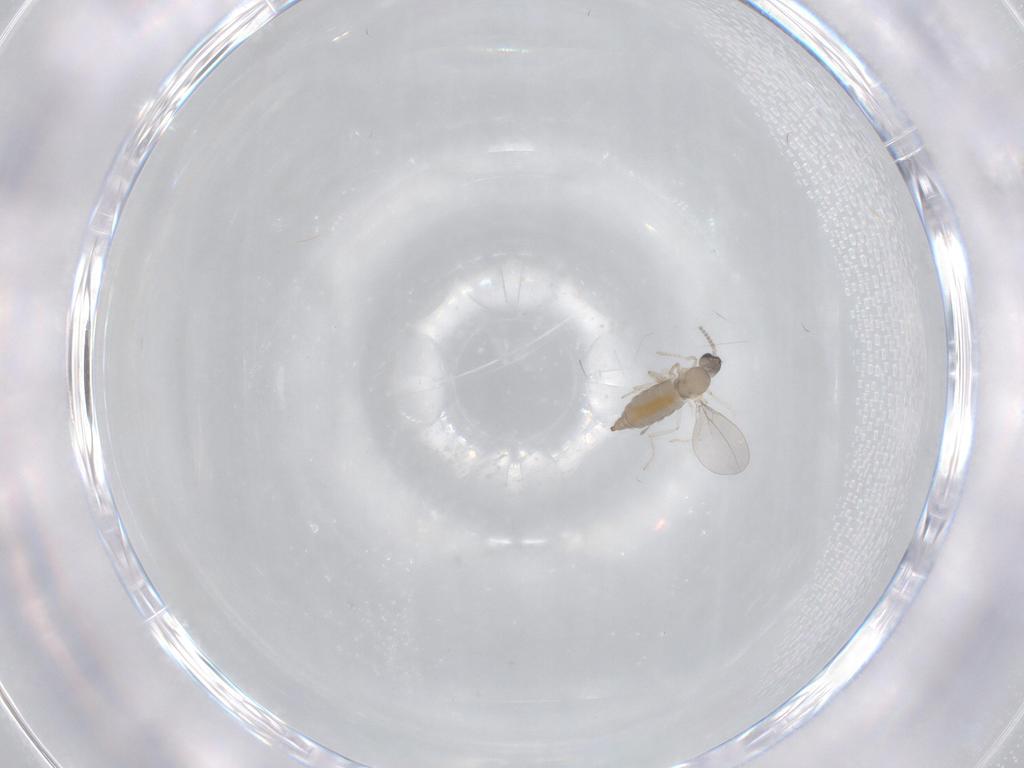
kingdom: Animalia
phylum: Arthropoda
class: Insecta
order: Diptera
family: Cecidomyiidae
